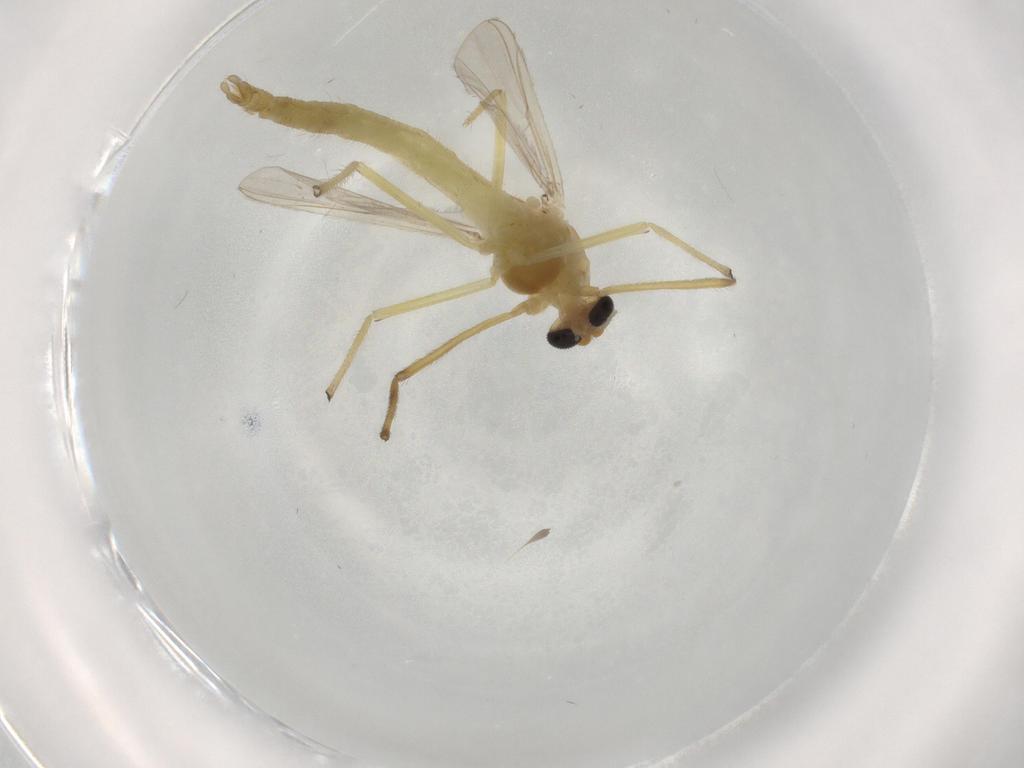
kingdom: Animalia
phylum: Arthropoda
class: Insecta
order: Diptera
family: Chironomidae
